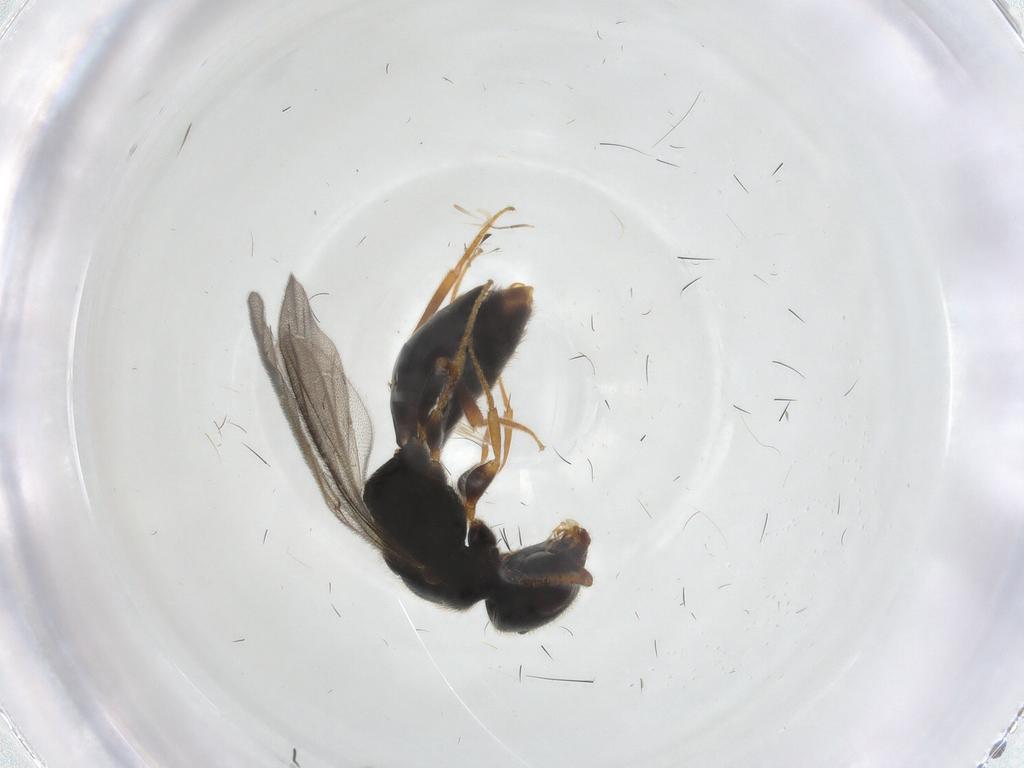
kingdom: Animalia
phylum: Arthropoda
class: Insecta
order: Hymenoptera
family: Bethylidae
